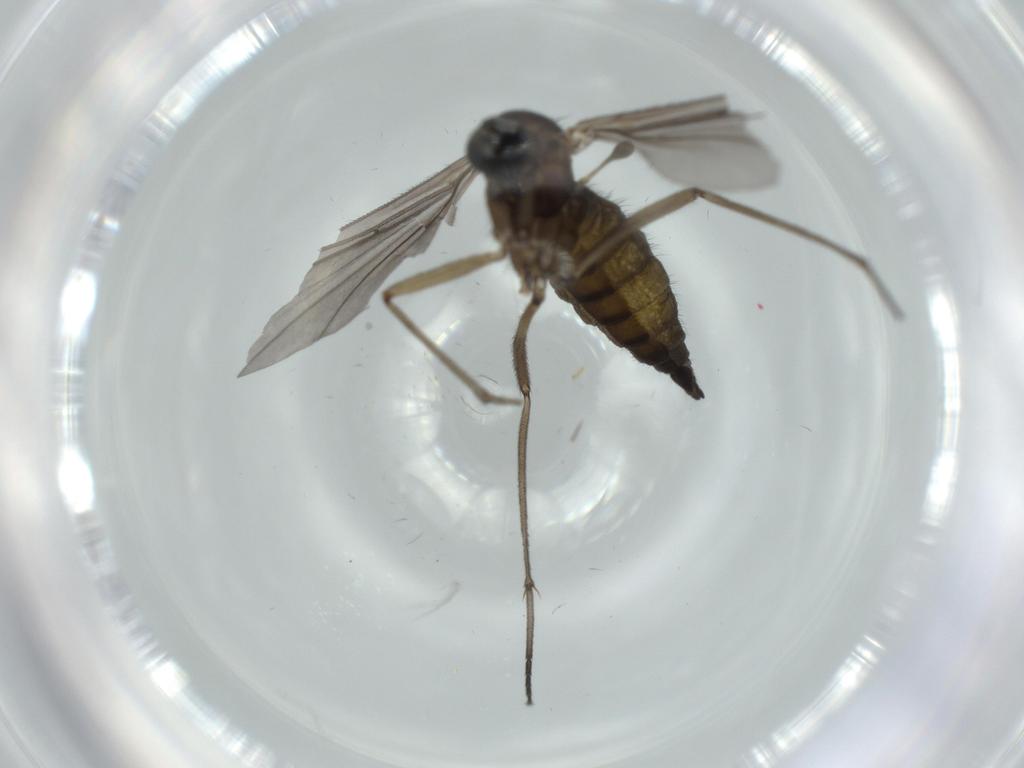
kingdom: Animalia
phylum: Arthropoda
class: Insecta
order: Diptera
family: Sciaridae
